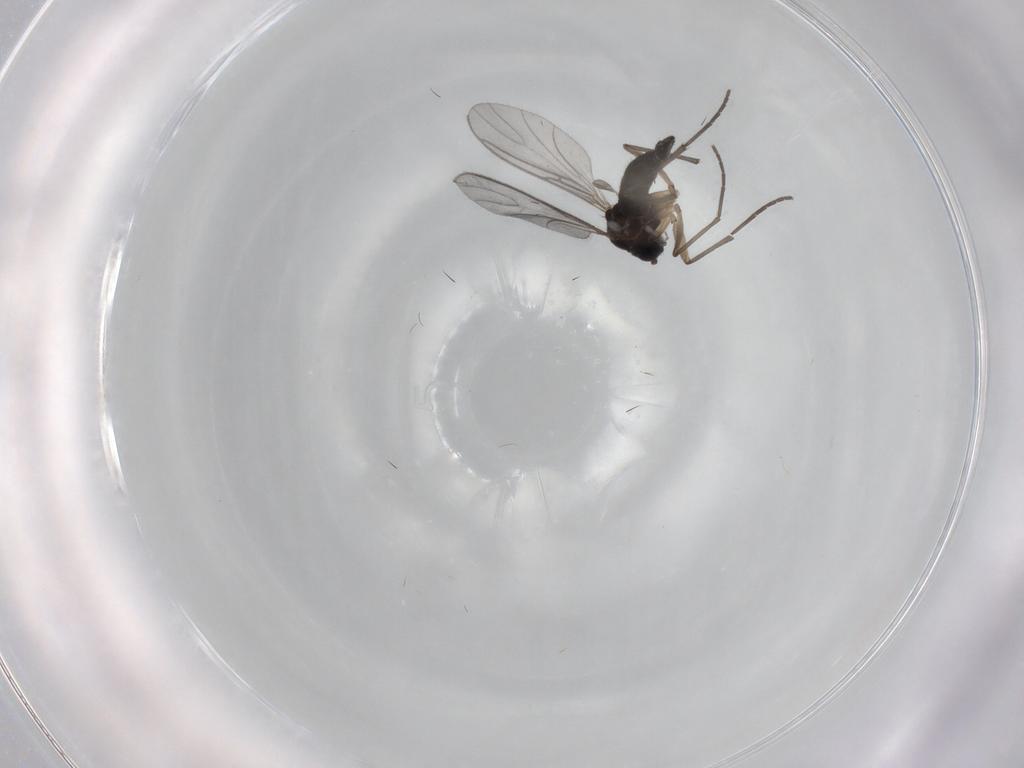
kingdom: Animalia
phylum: Arthropoda
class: Insecta
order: Diptera
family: Sciaridae
